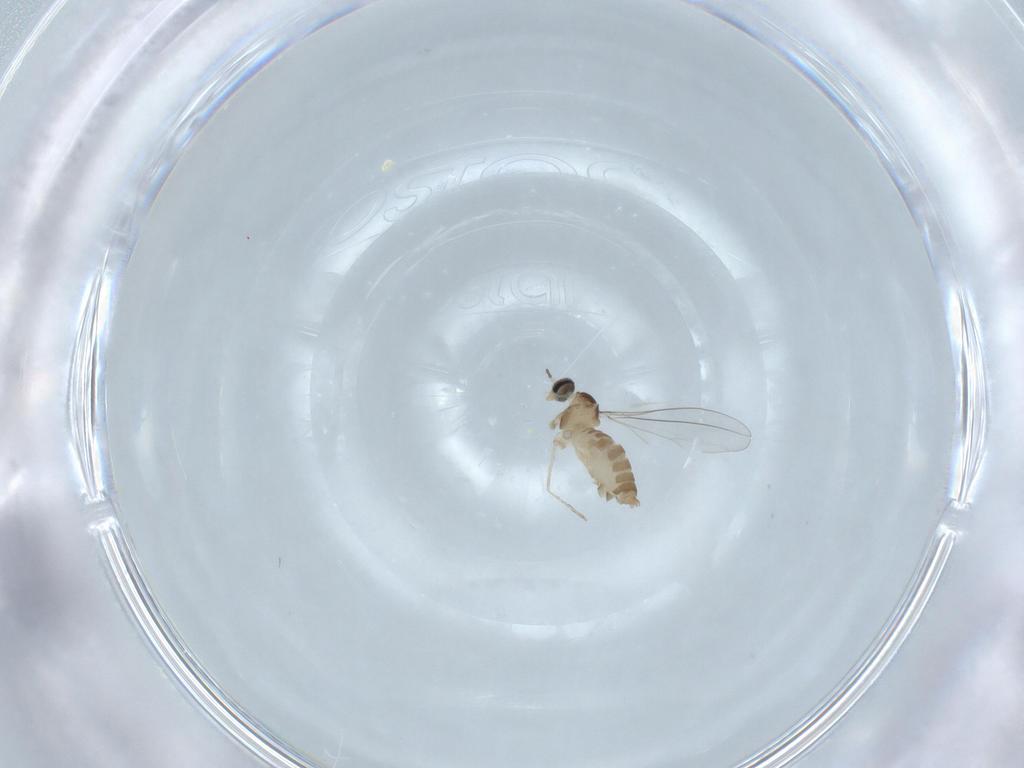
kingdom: Animalia
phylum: Arthropoda
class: Insecta
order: Diptera
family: Cecidomyiidae
